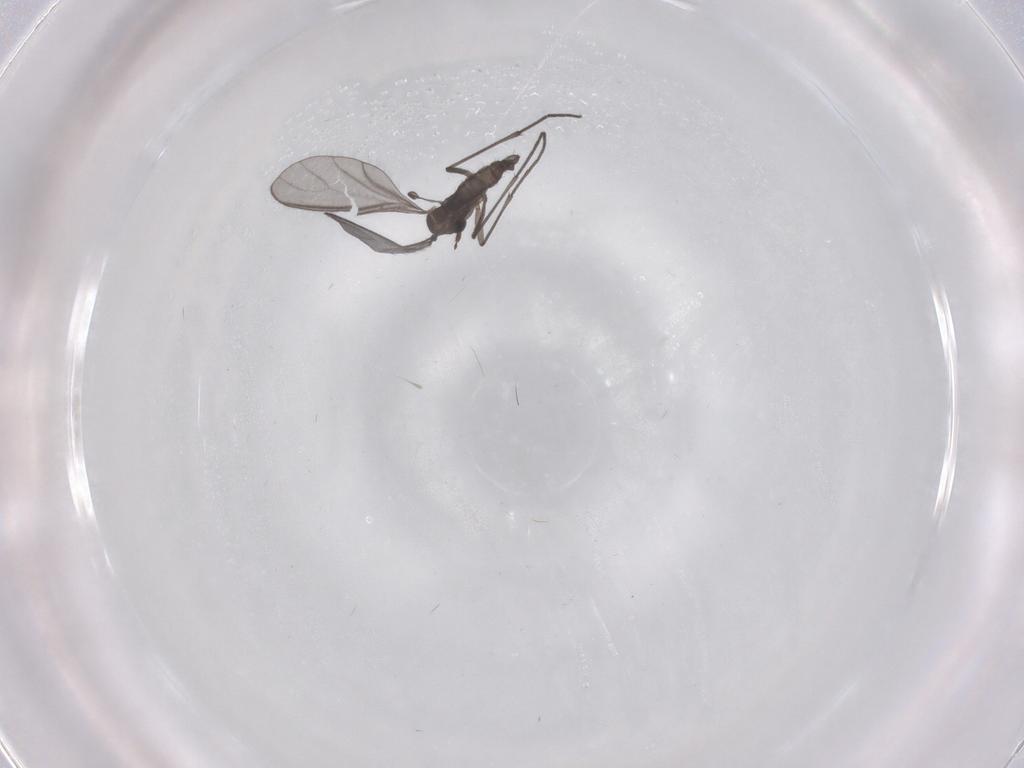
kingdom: Animalia
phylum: Arthropoda
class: Insecta
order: Diptera
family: Sciaridae
